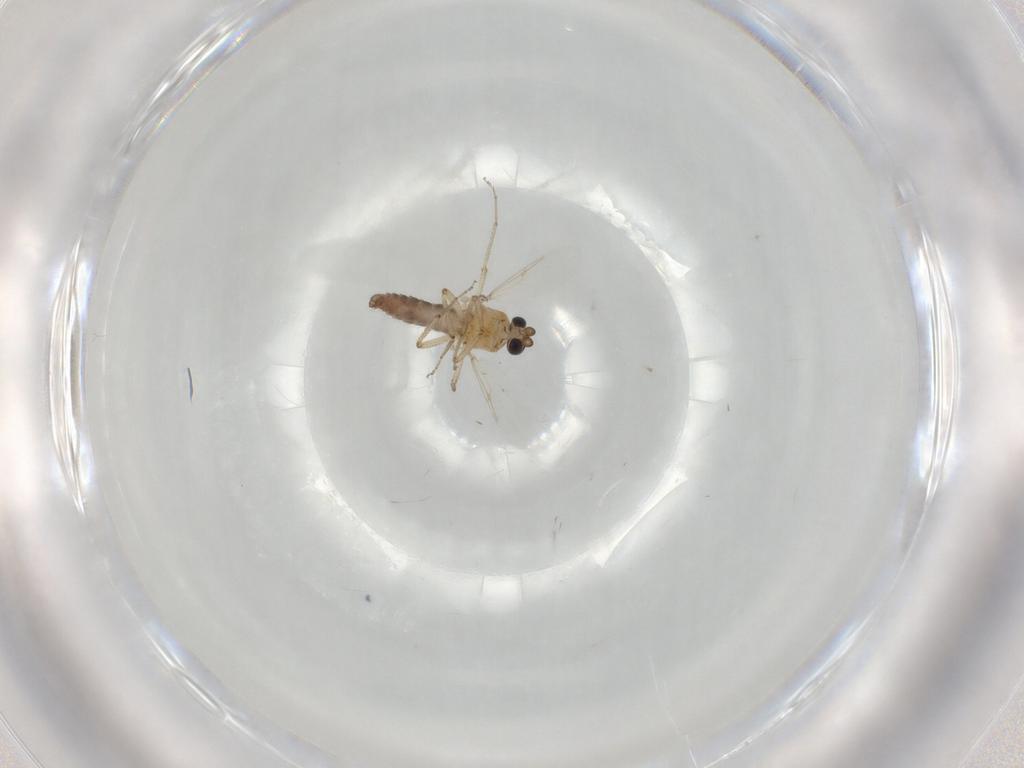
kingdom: Animalia
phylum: Arthropoda
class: Insecta
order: Diptera
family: Ceratopogonidae
